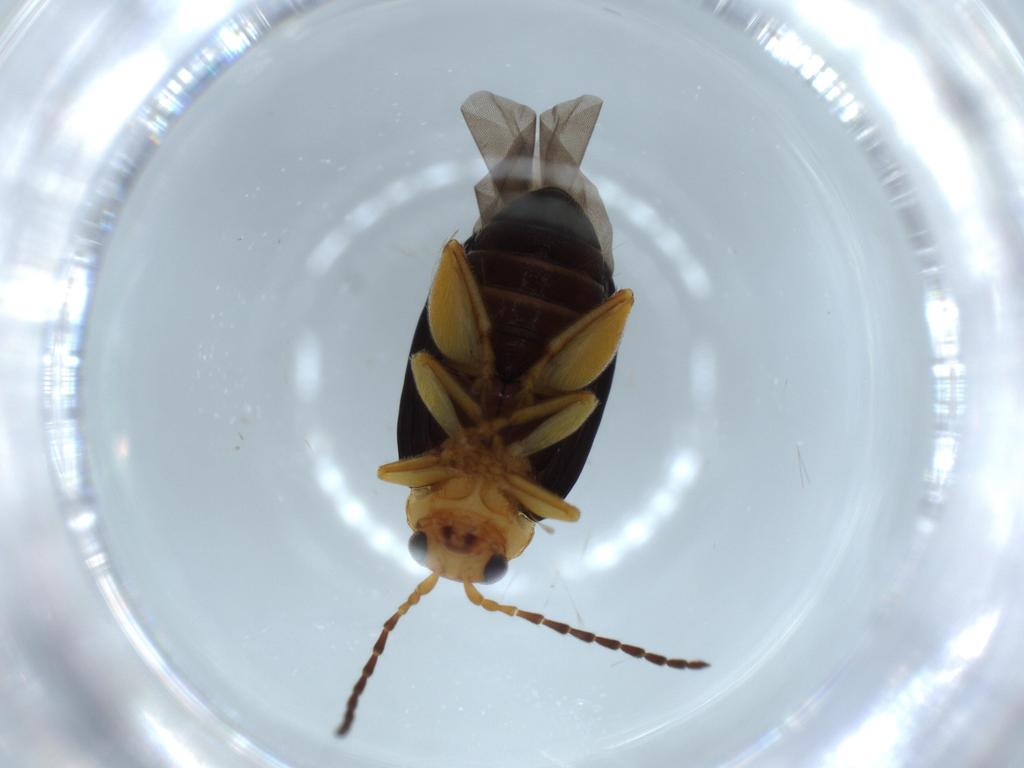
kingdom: Animalia
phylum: Arthropoda
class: Insecta
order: Coleoptera
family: Chrysomelidae
